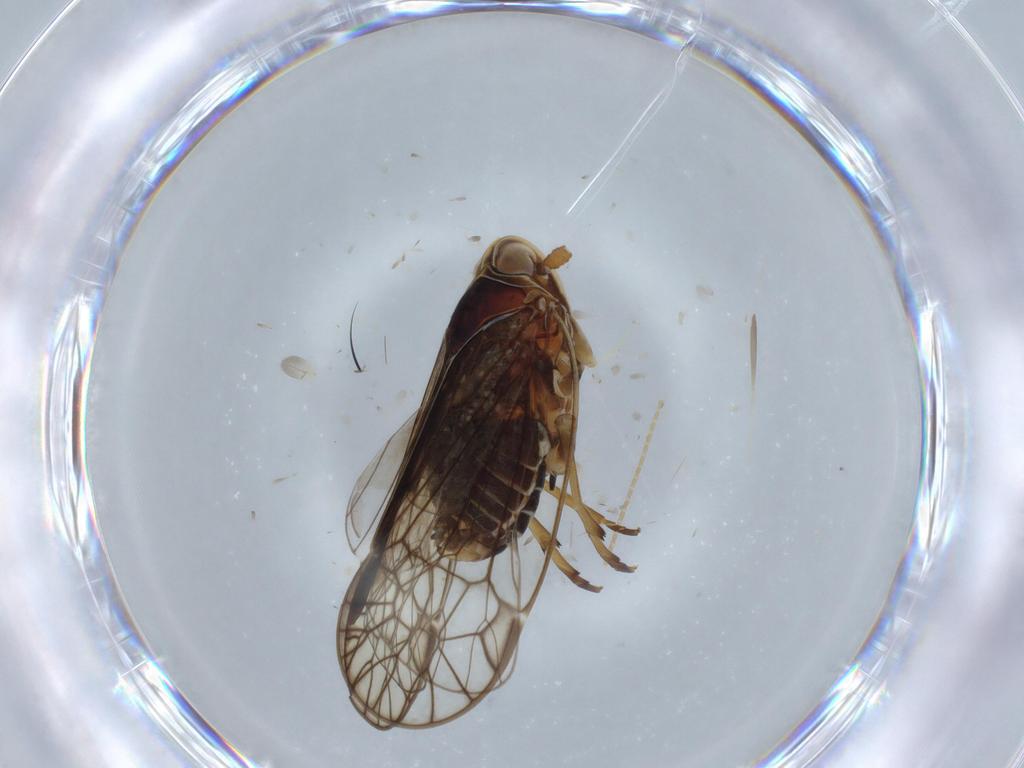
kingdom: Animalia
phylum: Arthropoda
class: Insecta
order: Hemiptera
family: Kinnaridae
